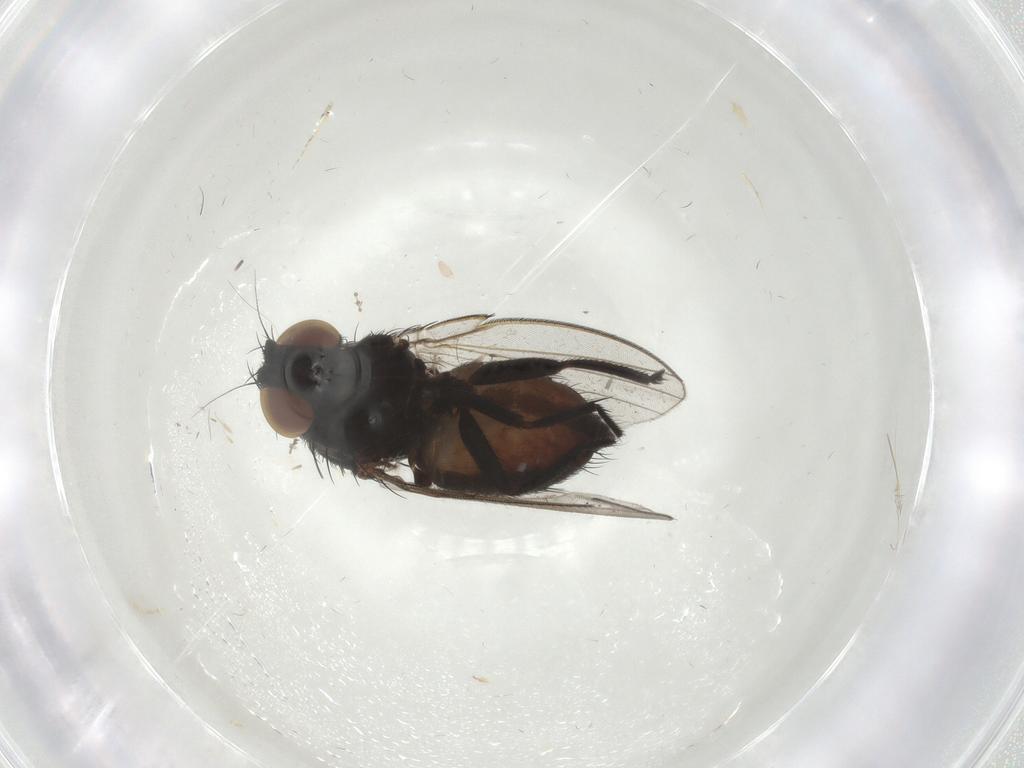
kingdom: Animalia
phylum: Arthropoda
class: Insecta
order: Diptera
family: Milichiidae
